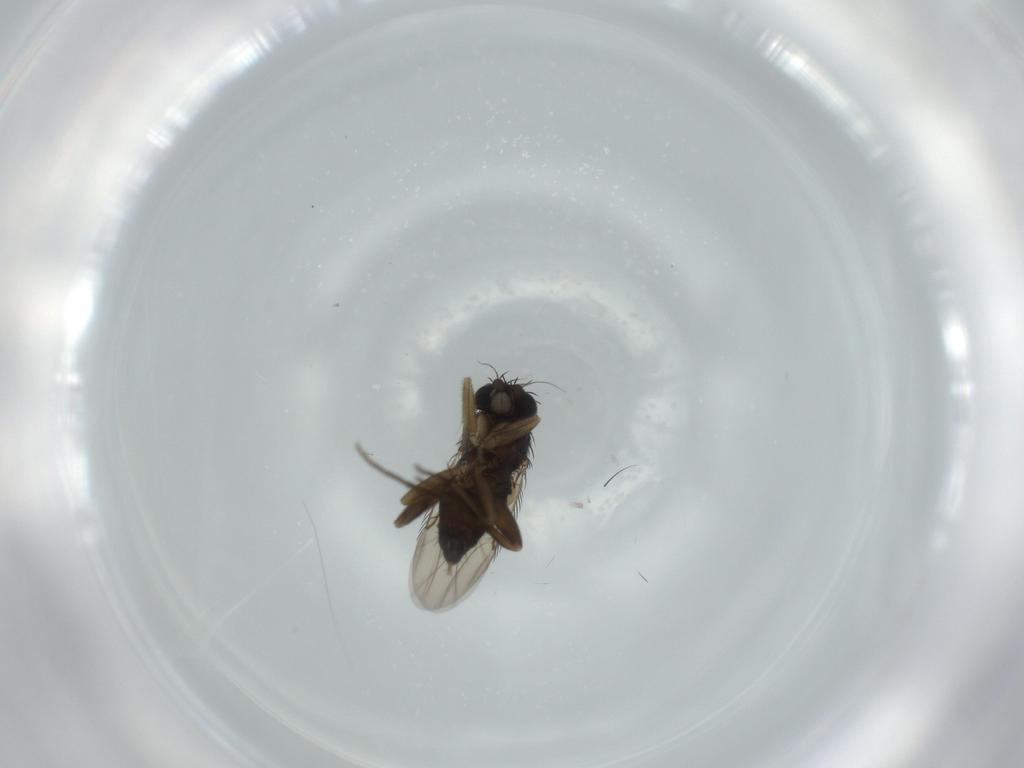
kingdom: Animalia
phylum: Arthropoda
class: Insecta
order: Diptera
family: Phoridae
